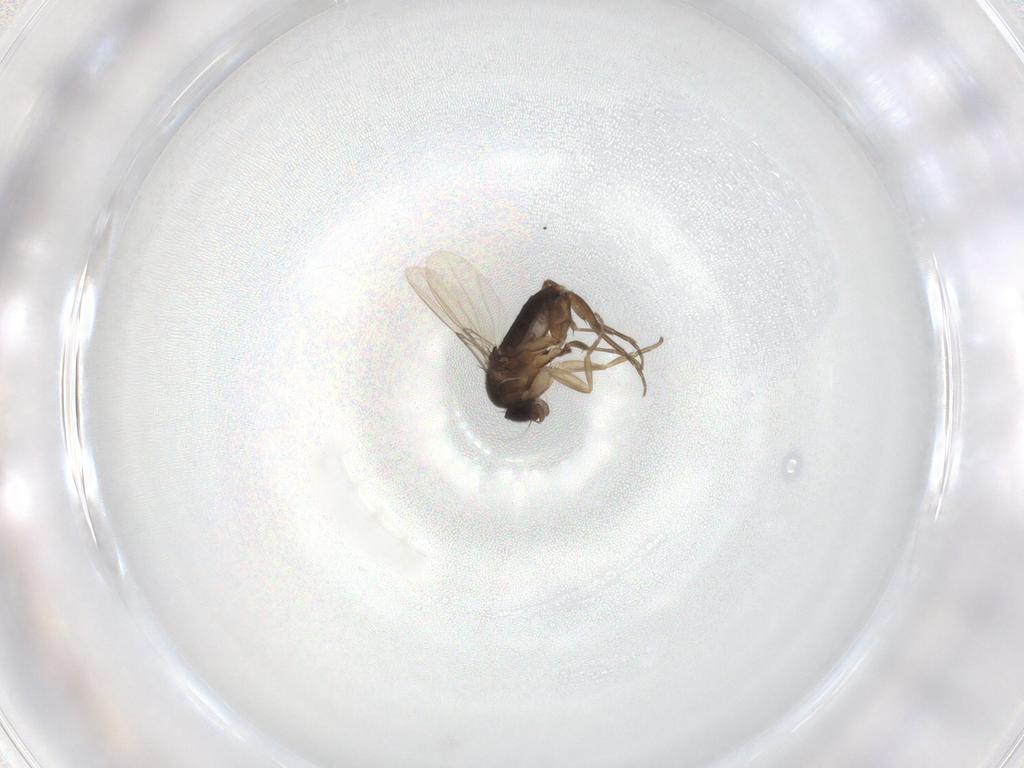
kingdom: Animalia
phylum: Arthropoda
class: Insecta
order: Diptera
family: Phoridae
